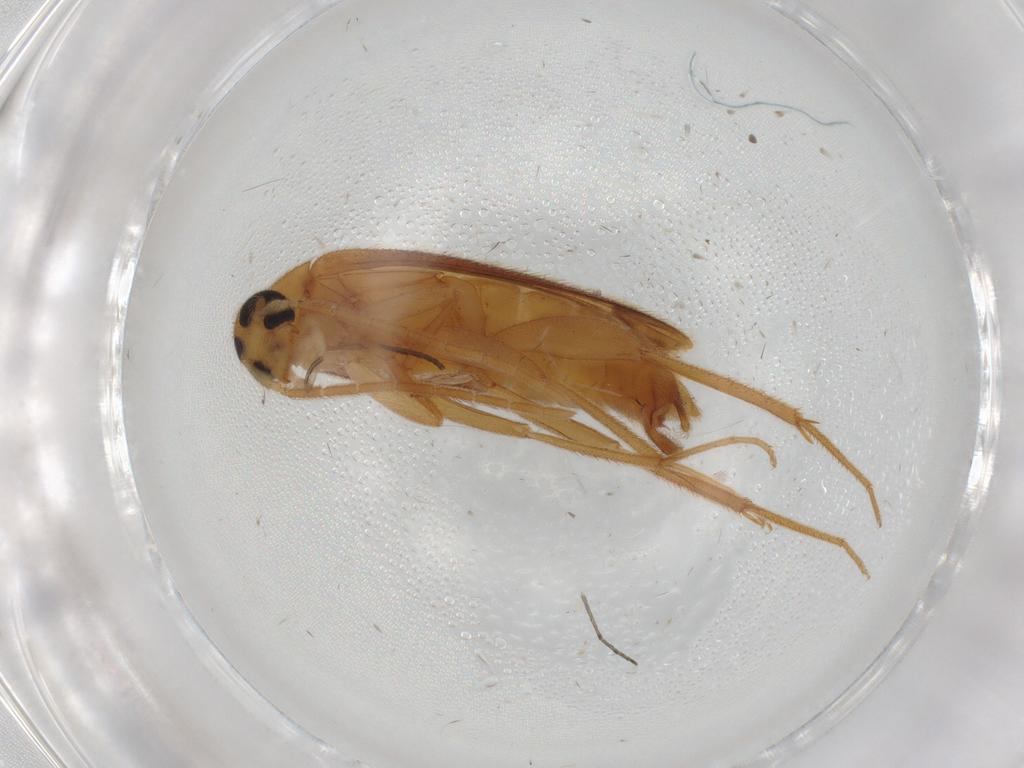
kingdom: Animalia
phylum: Arthropoda
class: Insecta
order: Coleoptera
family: Scraptiidae
